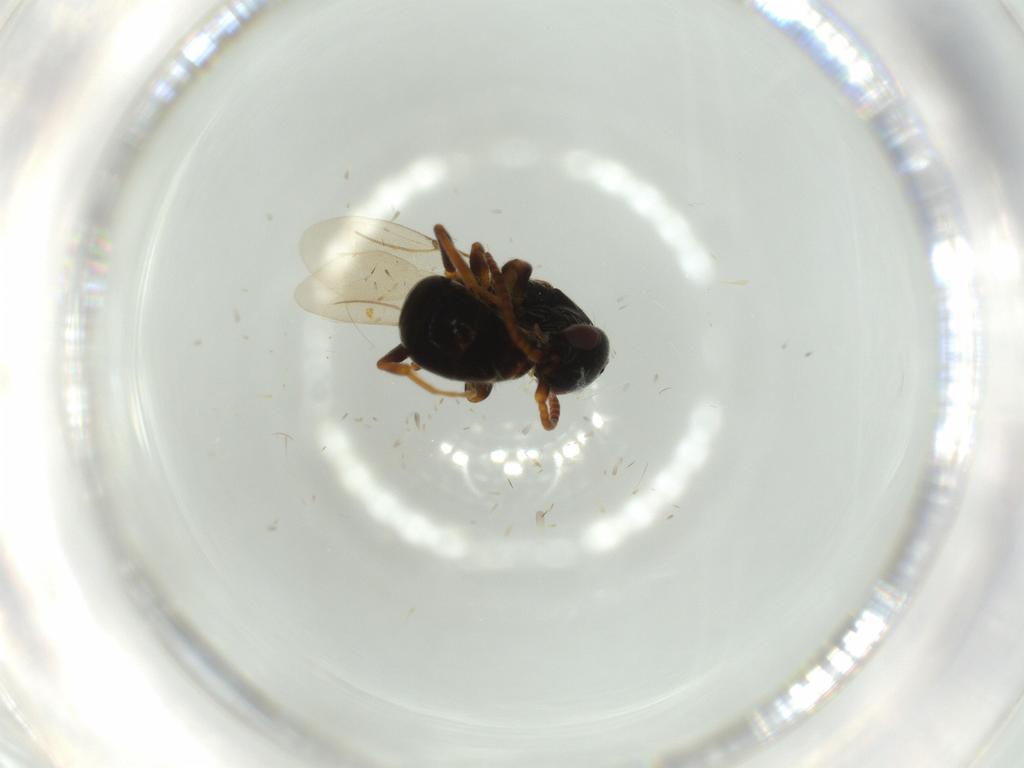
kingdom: Animalia
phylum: Arthropoda
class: Insecta
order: Hymenoptera
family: Bethylidae
